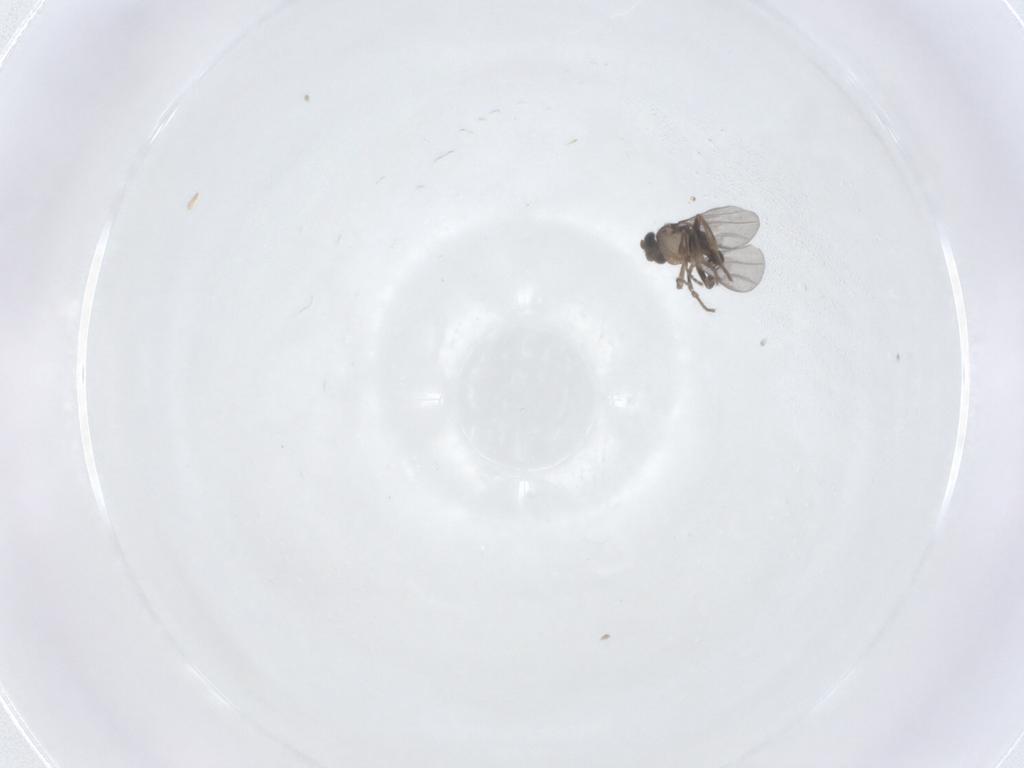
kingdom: Animalia
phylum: Arthropoda
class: Insecta
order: Diptera
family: Phoridae
